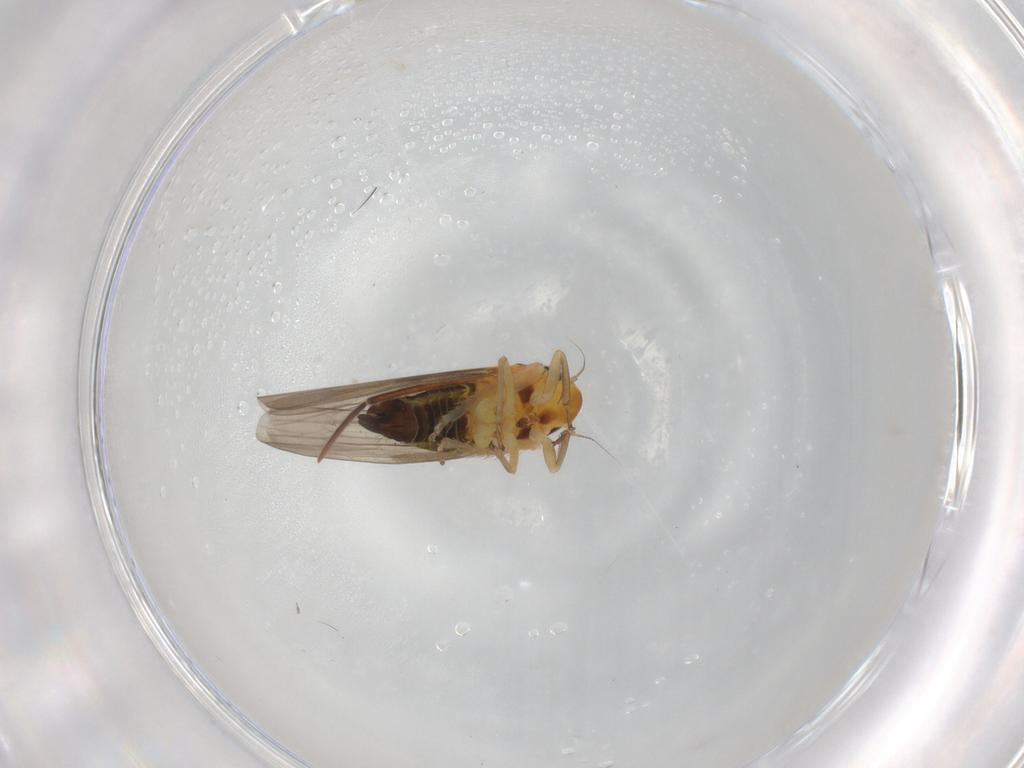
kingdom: Animalia
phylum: Arthropoda
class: Insecta
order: Hemiptera
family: Cicadellidae
